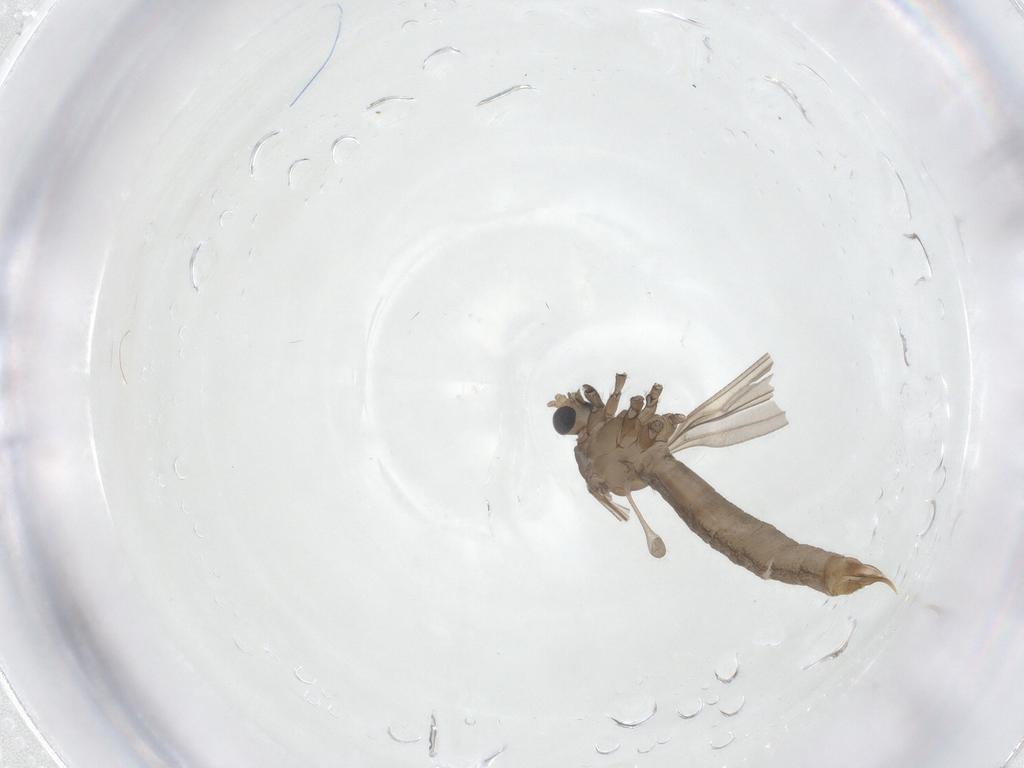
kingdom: Animalia
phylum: Arthropoda
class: Insecta
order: Diptera
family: Limoniidae
